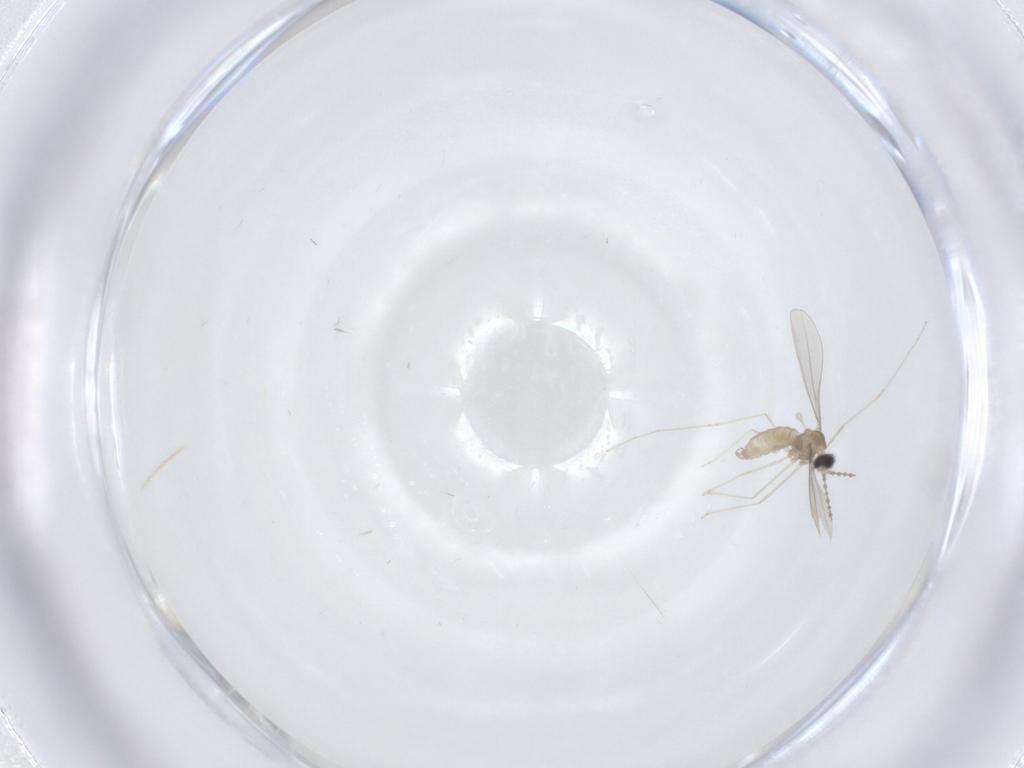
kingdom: Animalia
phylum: Arthropoda
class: Insecta
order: Diptera
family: Cecidomyiidae
